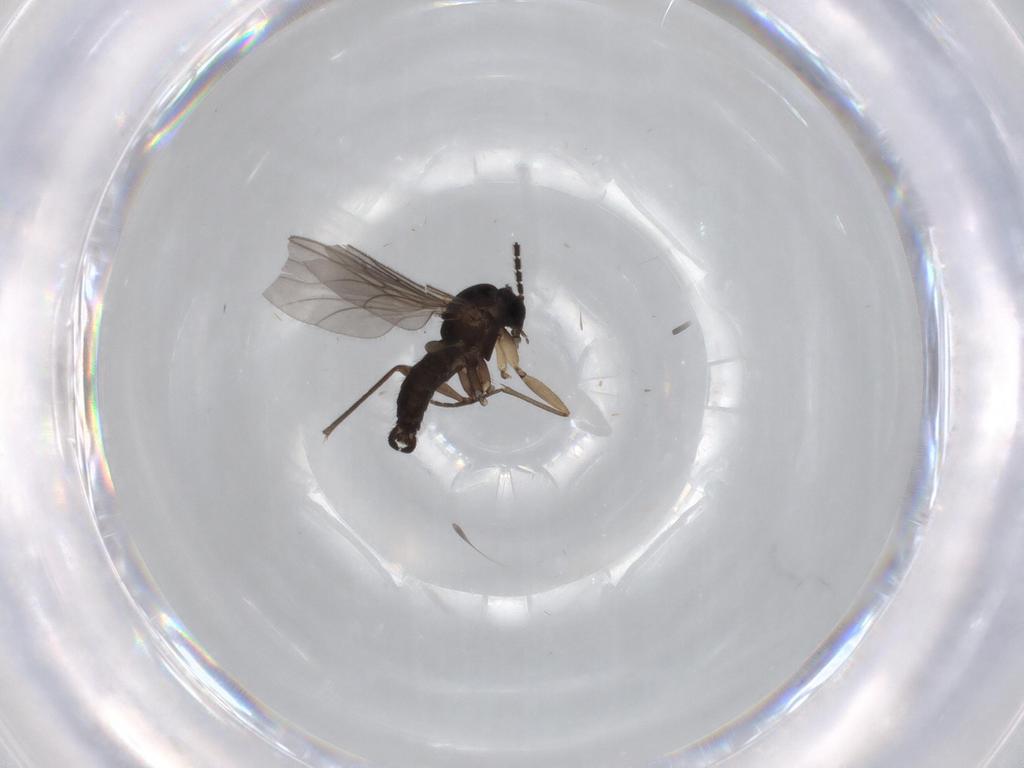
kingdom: Animalia
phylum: Arthropoda
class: Insecta
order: Diptera
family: Sciaridae
